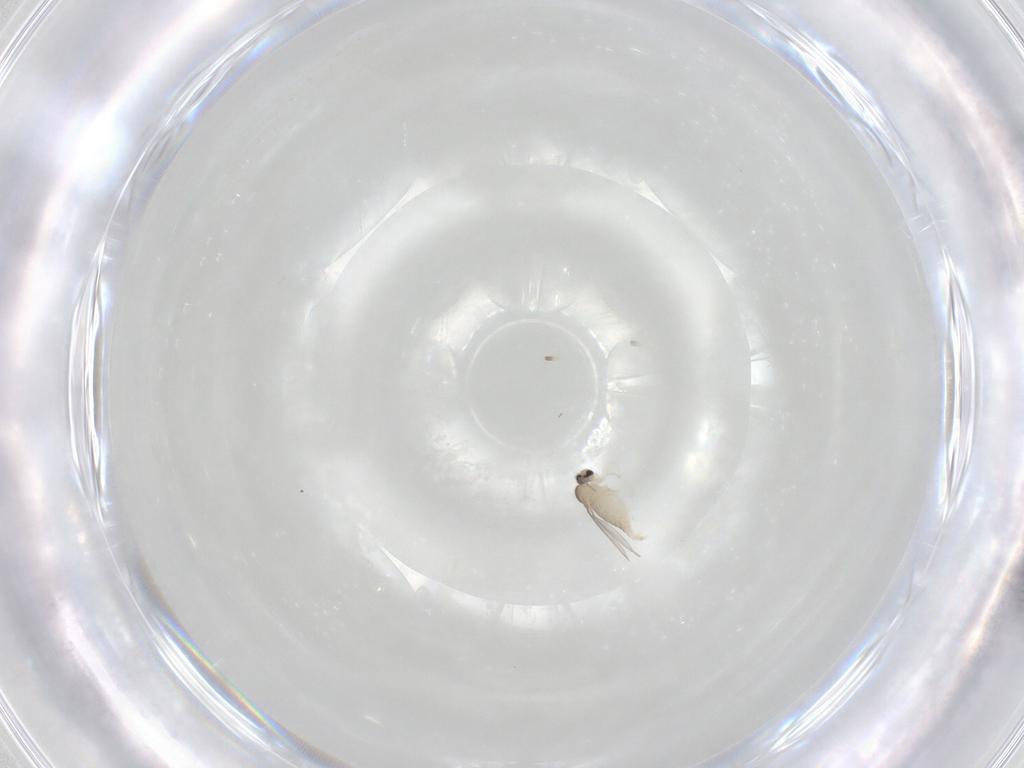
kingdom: Animalia
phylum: Arthropoda
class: Insecta
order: Diptera
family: Cecidomyiidae
